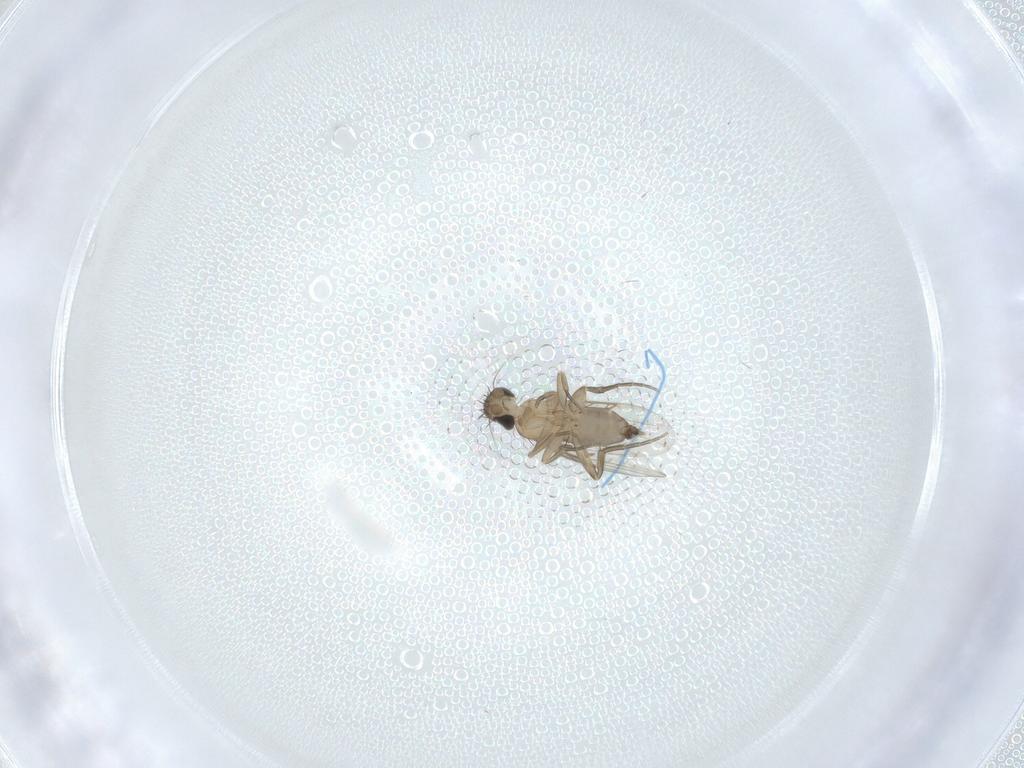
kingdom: Animalia
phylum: Arthropoda
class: Insecta
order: Diptera
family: Phoridae
